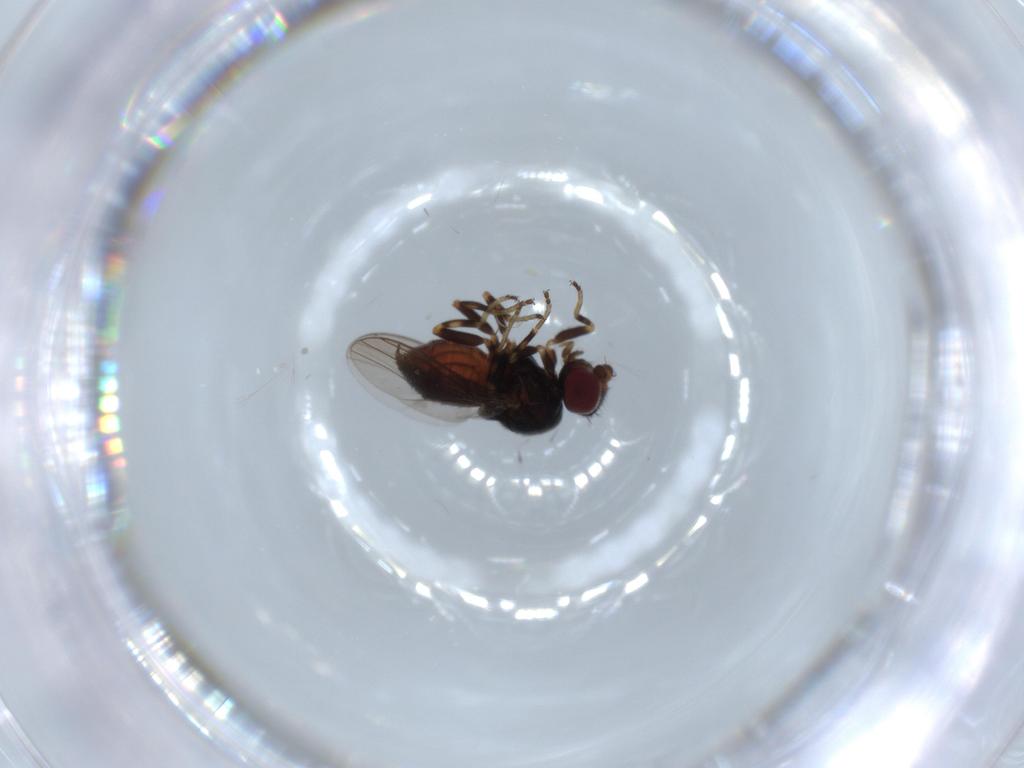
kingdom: Animalia
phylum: Arthropoda
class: Insecta
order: Diptera
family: Chloropidae
